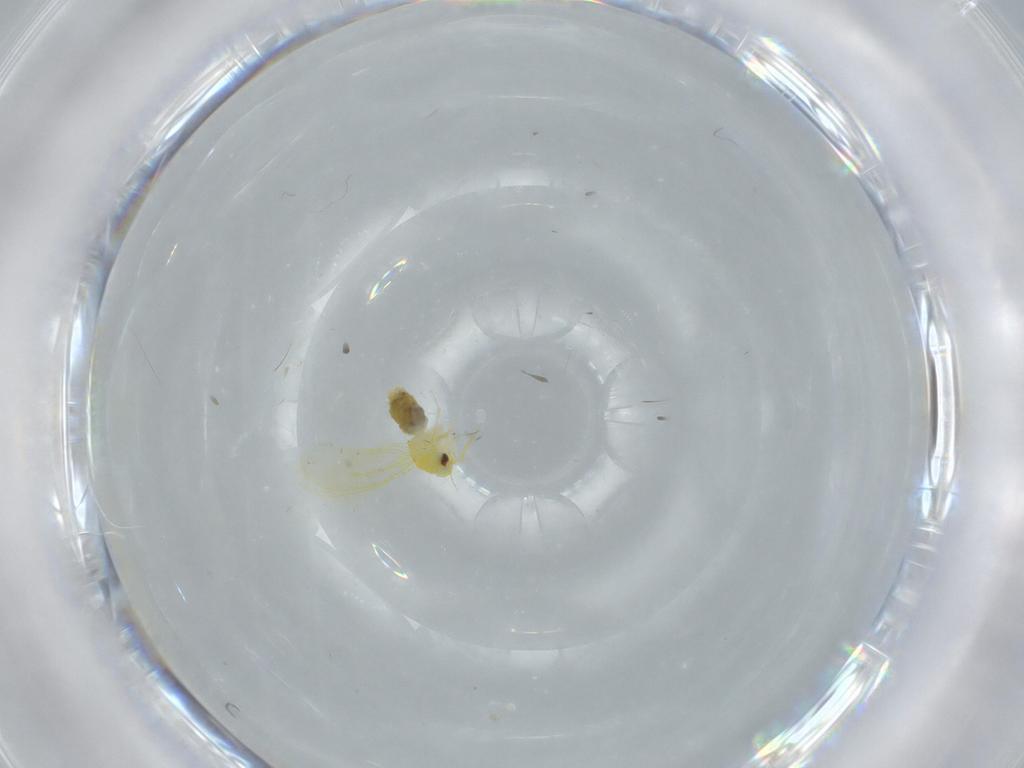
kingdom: Animalia
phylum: Arthropoda
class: Insecta
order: Hemiptera
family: Aleyrodidae
